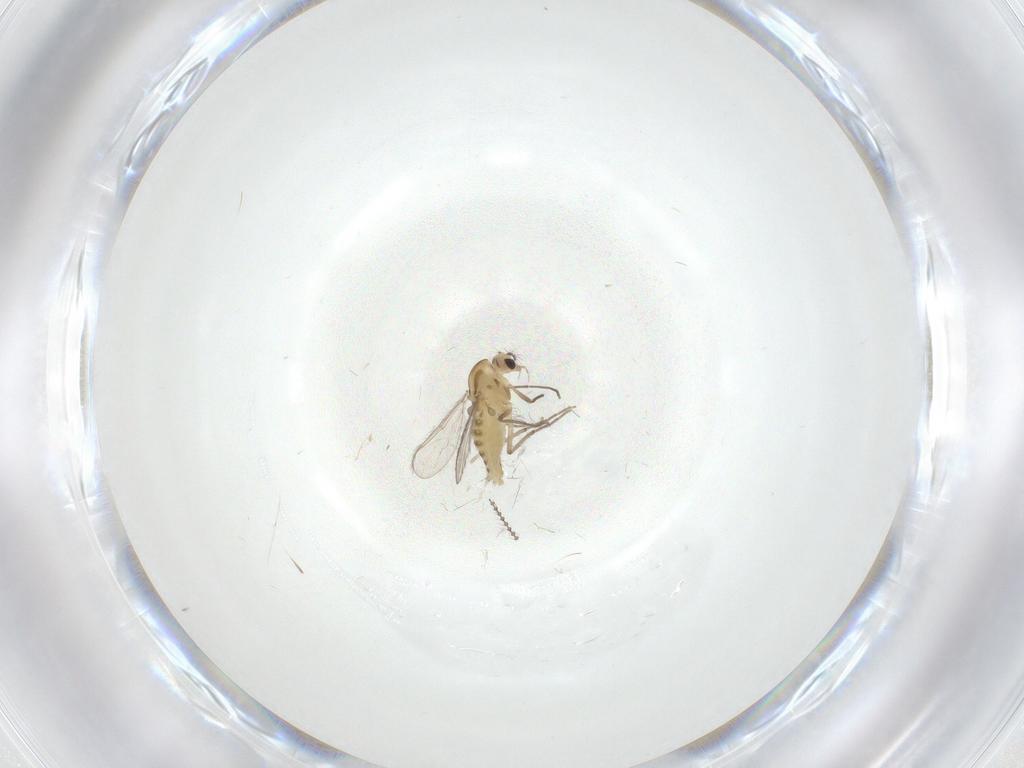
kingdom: Animalia
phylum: Arthropoda
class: Insecta
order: Diptera
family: Chironomidae
